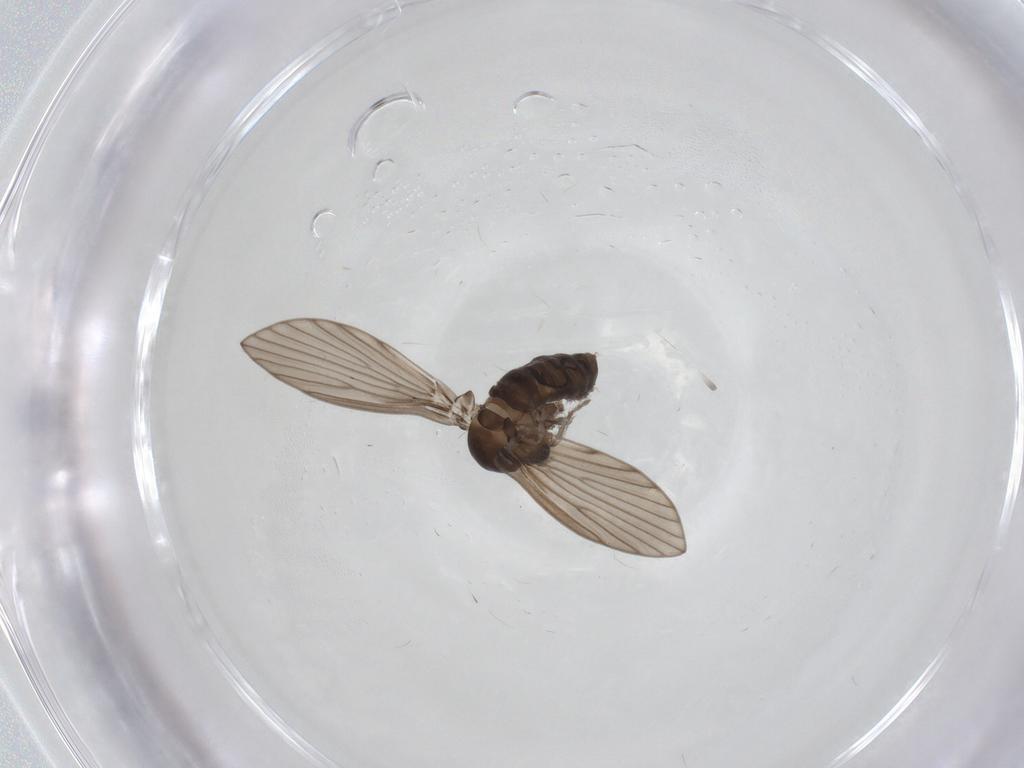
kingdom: Animalia
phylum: Arthropoda
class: Insecta
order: Diptera
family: Psychodidae
